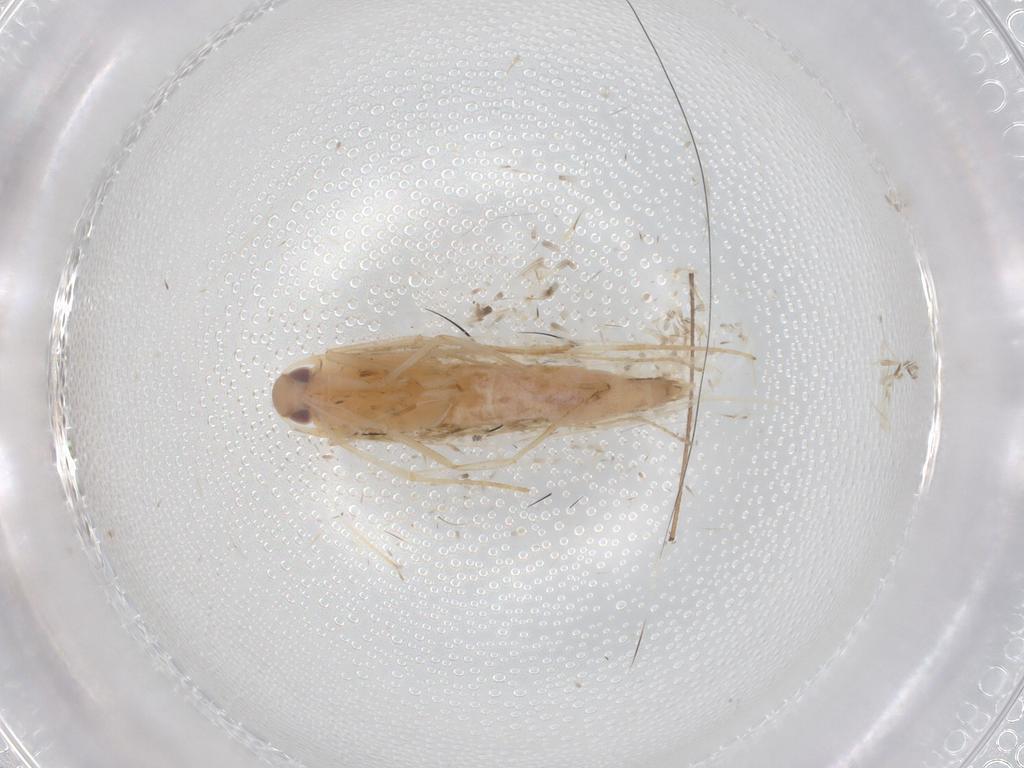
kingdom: Animalia
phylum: Arthropoda
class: Insecta
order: Lepidoptera
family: Cosmopterigidae
